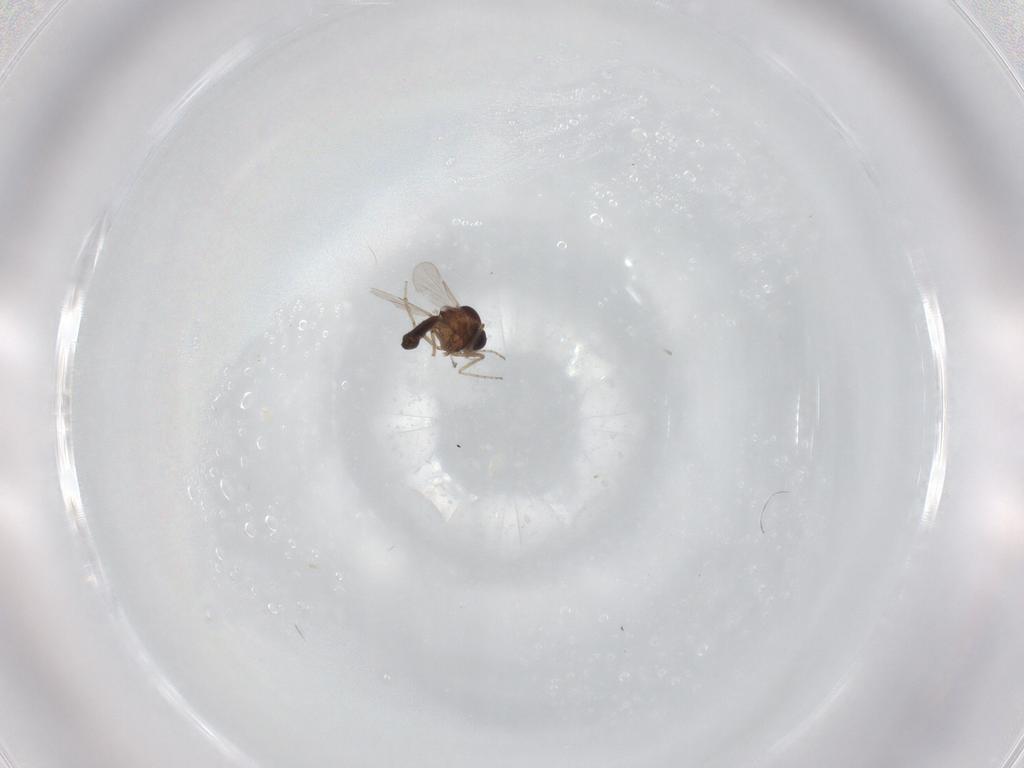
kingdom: Animalia
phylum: Arthropoda
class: Insecta
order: Diptera
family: Ceratopogonidae
